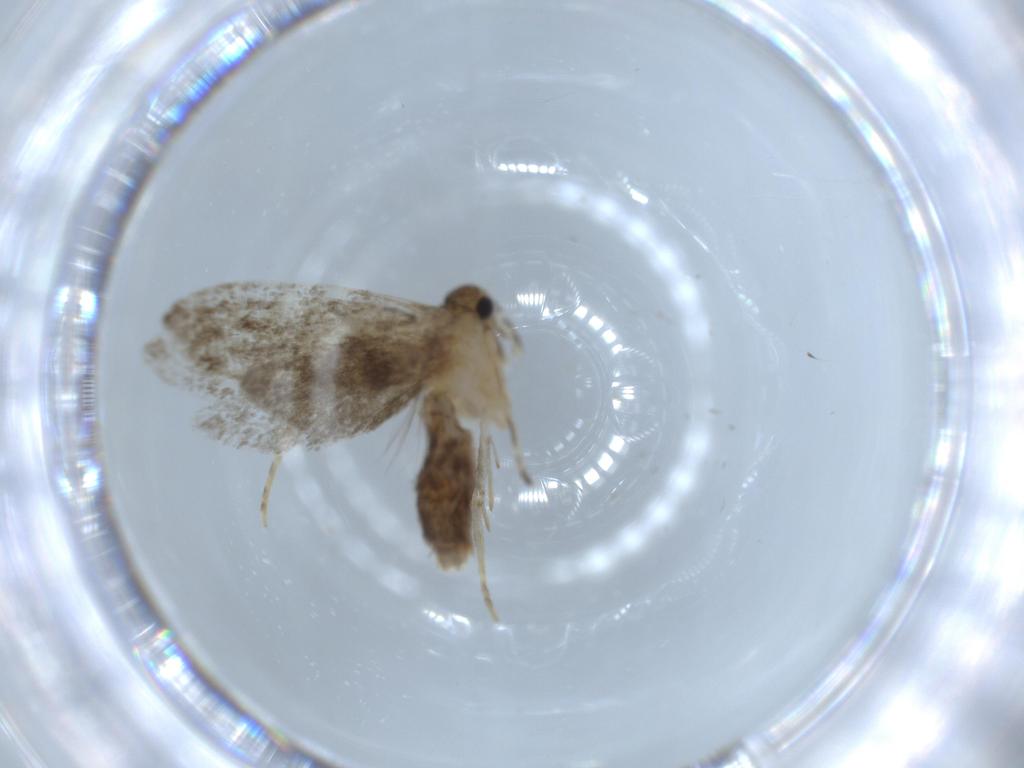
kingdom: Animalia
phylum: Arthropoda
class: Insecta
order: Lepidoptera
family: Tineidae
